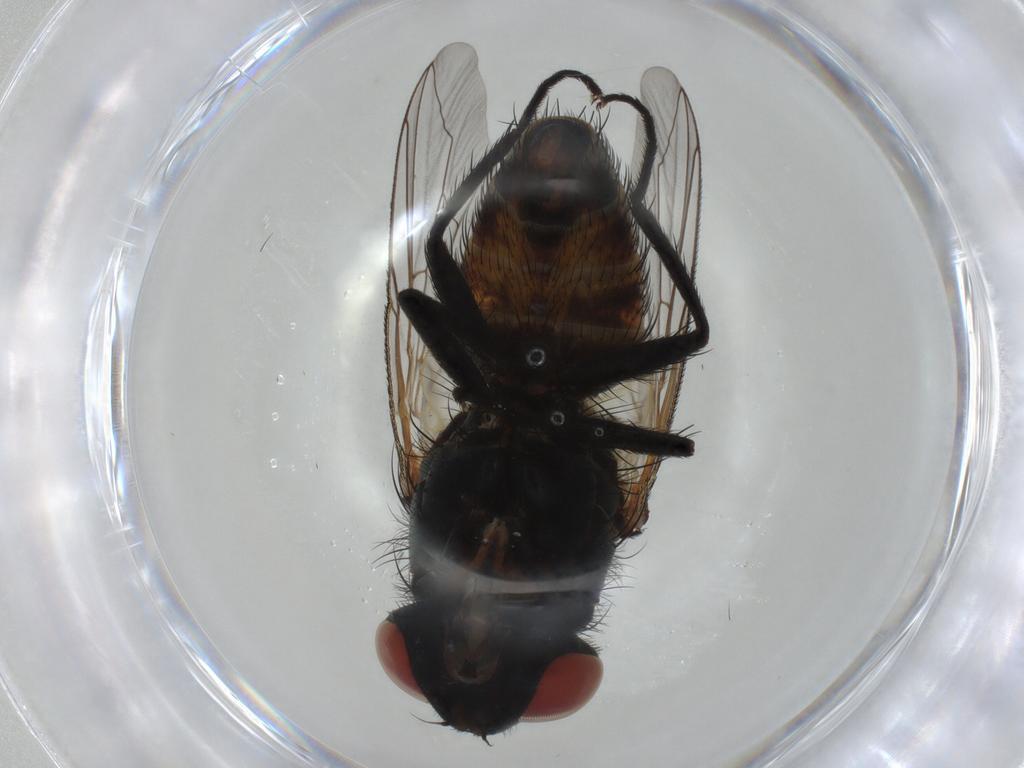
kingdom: Animalia
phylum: Arthropoda
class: Insecta
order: Diptera
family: Sarcophagidae
